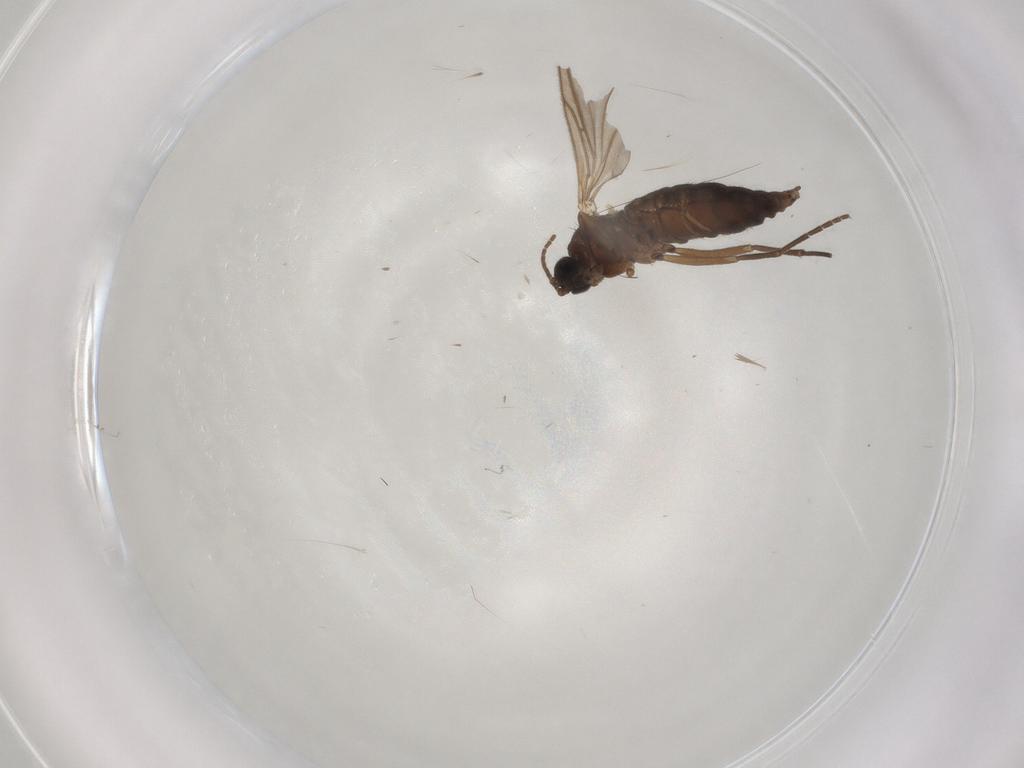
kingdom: Animalia
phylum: Arthropoda
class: Insecta
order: Diptera
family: Sciaridae
